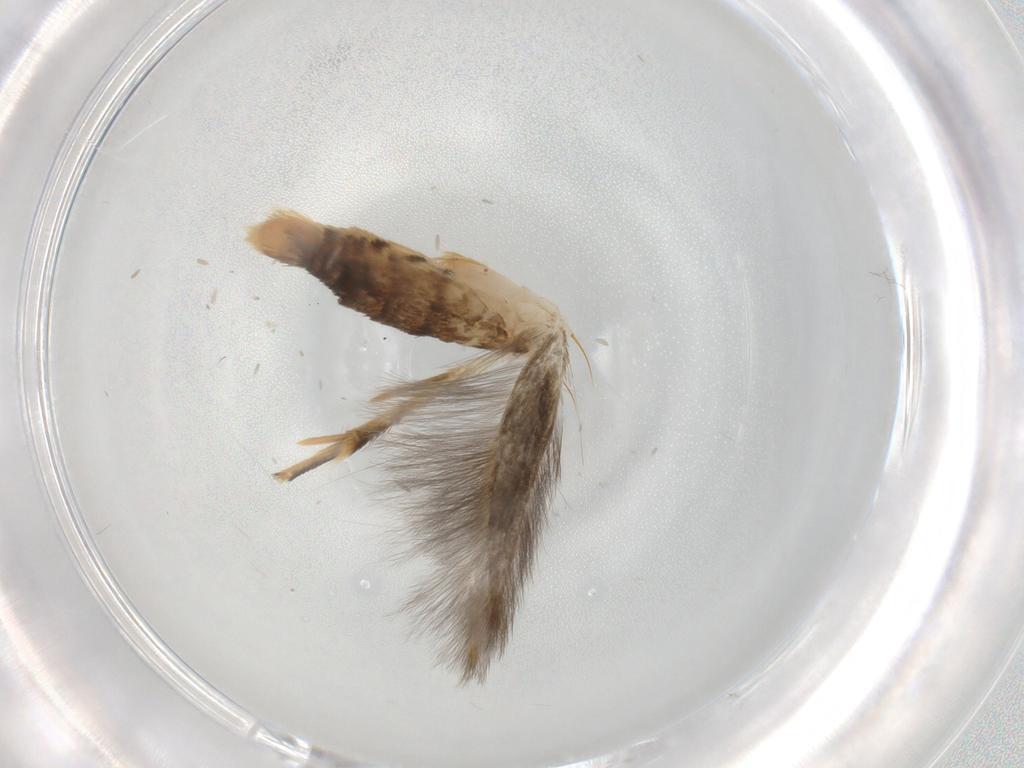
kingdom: Animalia
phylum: Arthropoda
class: Insecta
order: Lepidoptera
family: Momphidae
